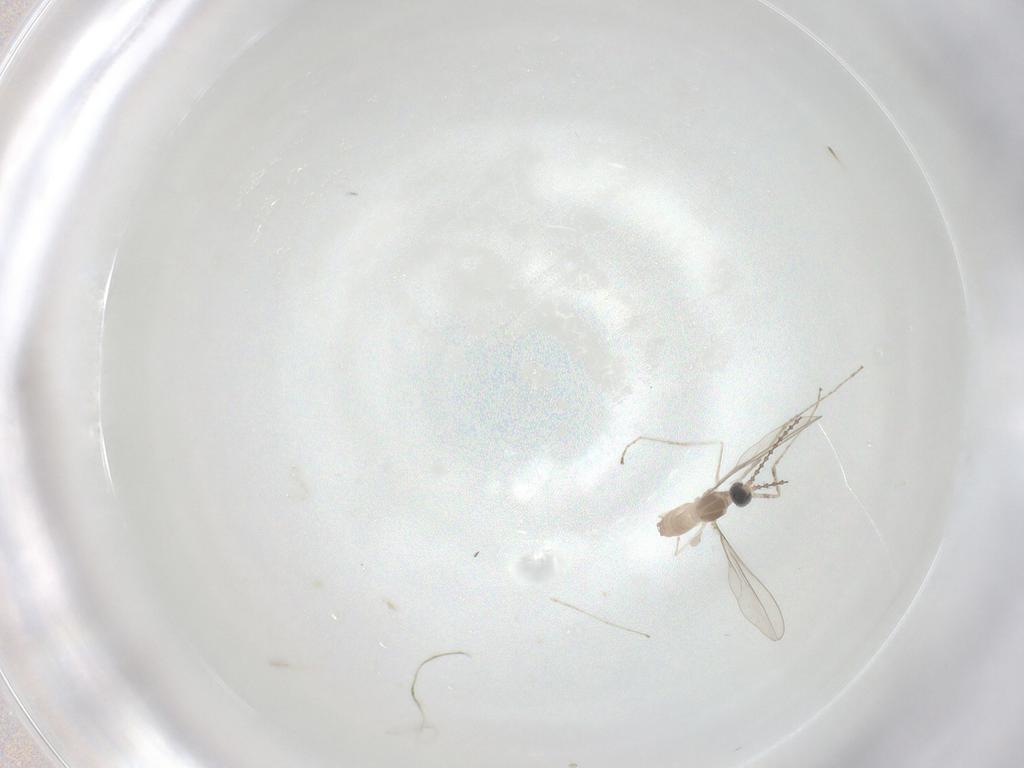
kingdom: Animalia
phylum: Arthropoda
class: Insecta
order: Diptera
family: Cecidomyiidae
